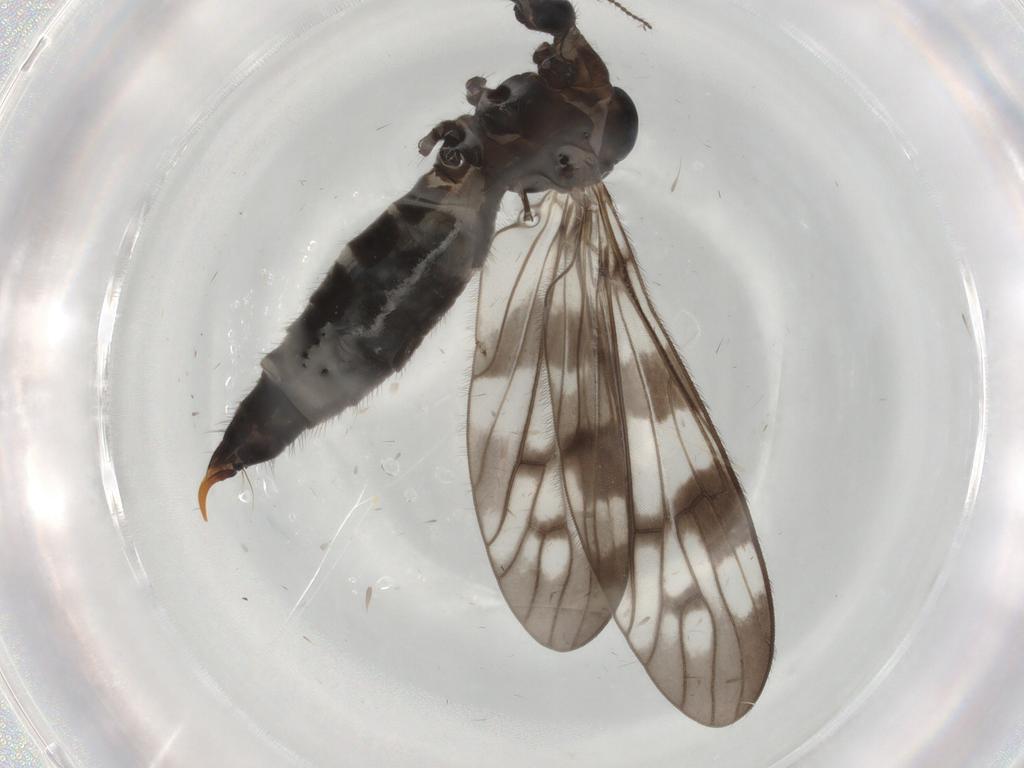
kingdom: Animalia
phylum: Arthropoda
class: Insecta
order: Diptera
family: Limoniidae
